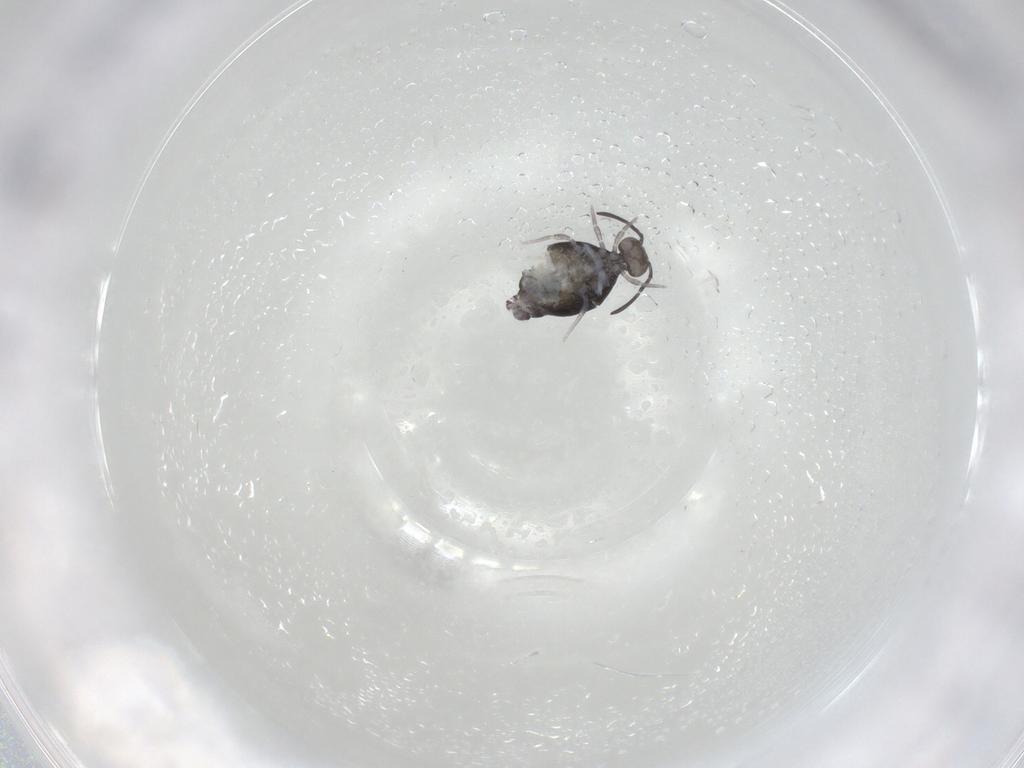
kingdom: Animalia
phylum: Arthropoda
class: Collembola
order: Symphypleona
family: Katiannidae
